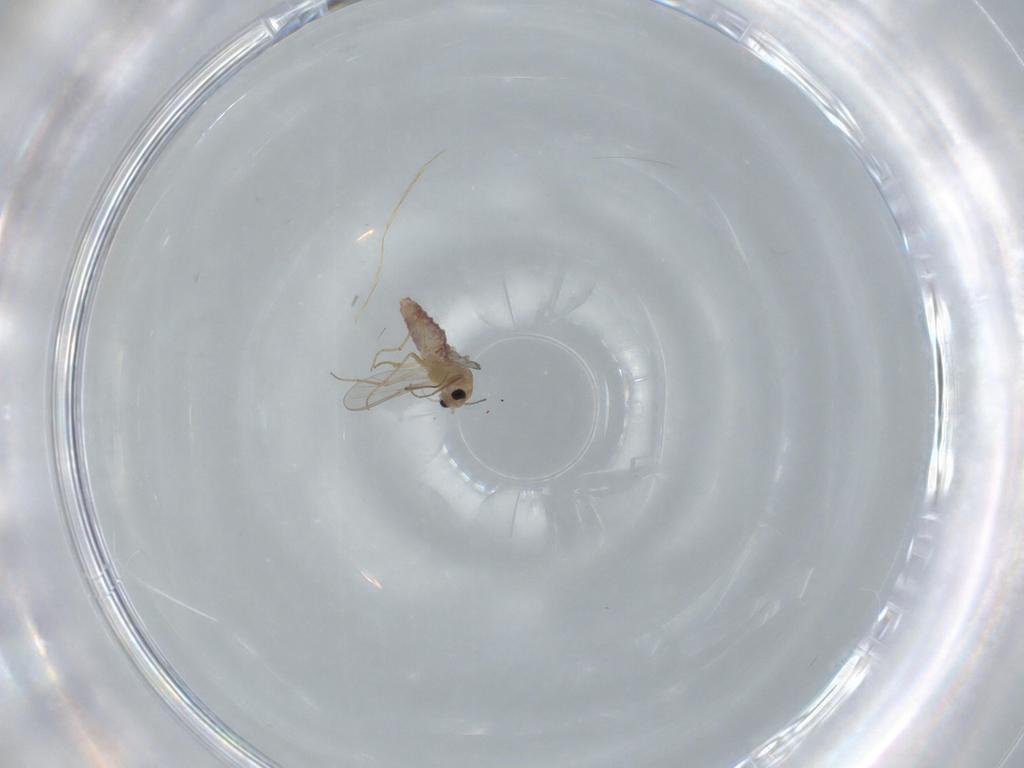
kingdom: Animalia
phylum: Arthropoda
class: Insecta
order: Diptera
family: Chironomidae
